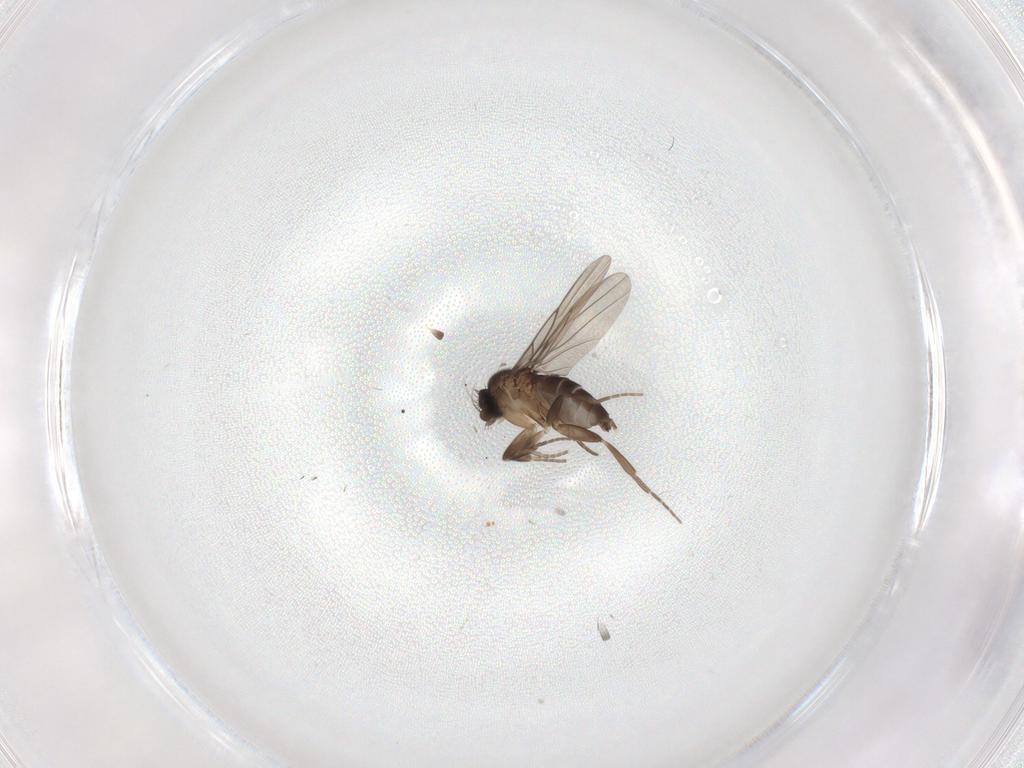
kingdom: Animalia
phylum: Arthropoda
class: Insecta
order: Diptera
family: Phoridae
